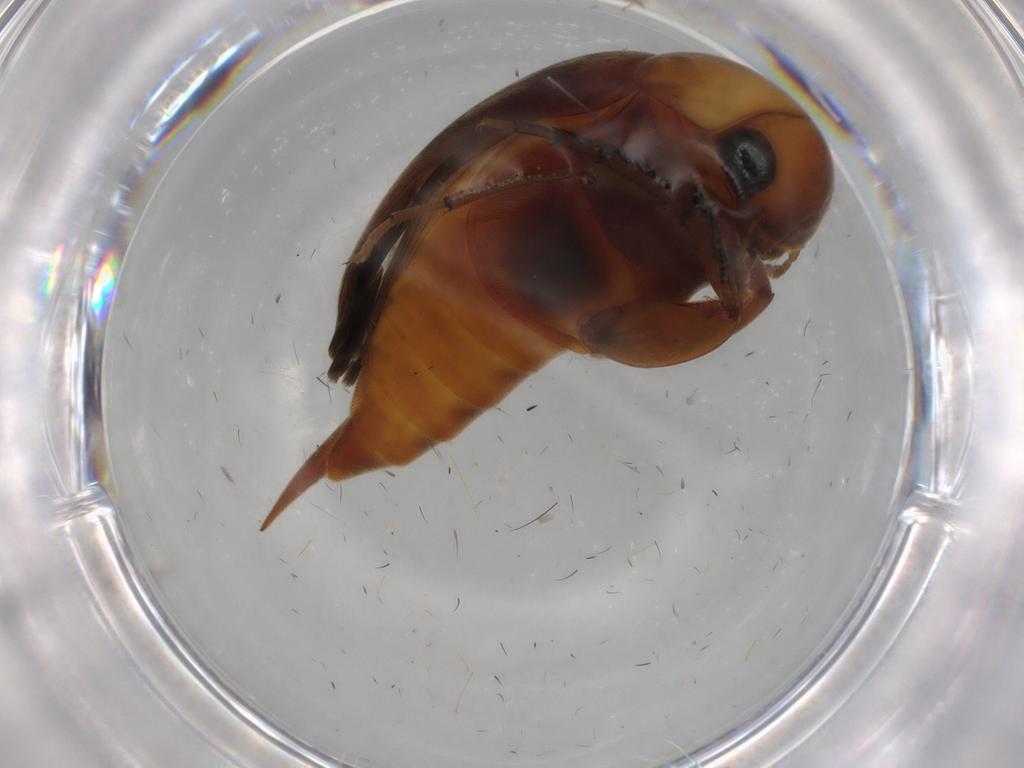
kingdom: Animalia
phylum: Arthropoda
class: Insecta
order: Coleoptera
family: Mordellidae
